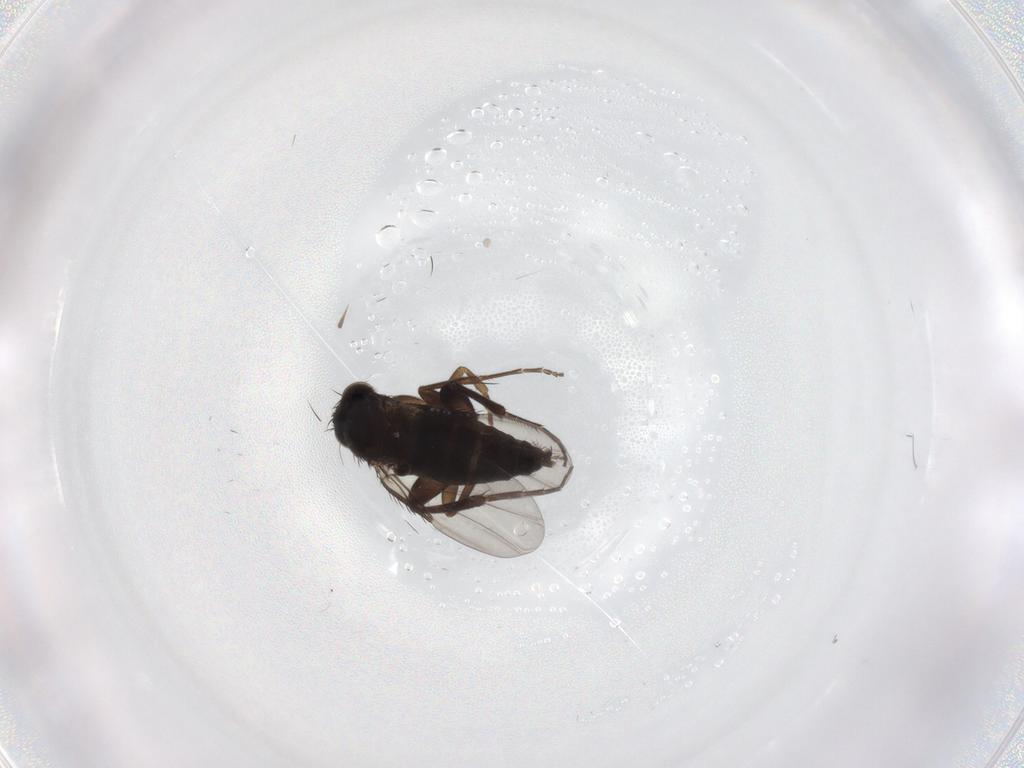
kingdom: Animalia
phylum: Arthropoda
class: Insecta
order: Diptera
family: Phoridae
